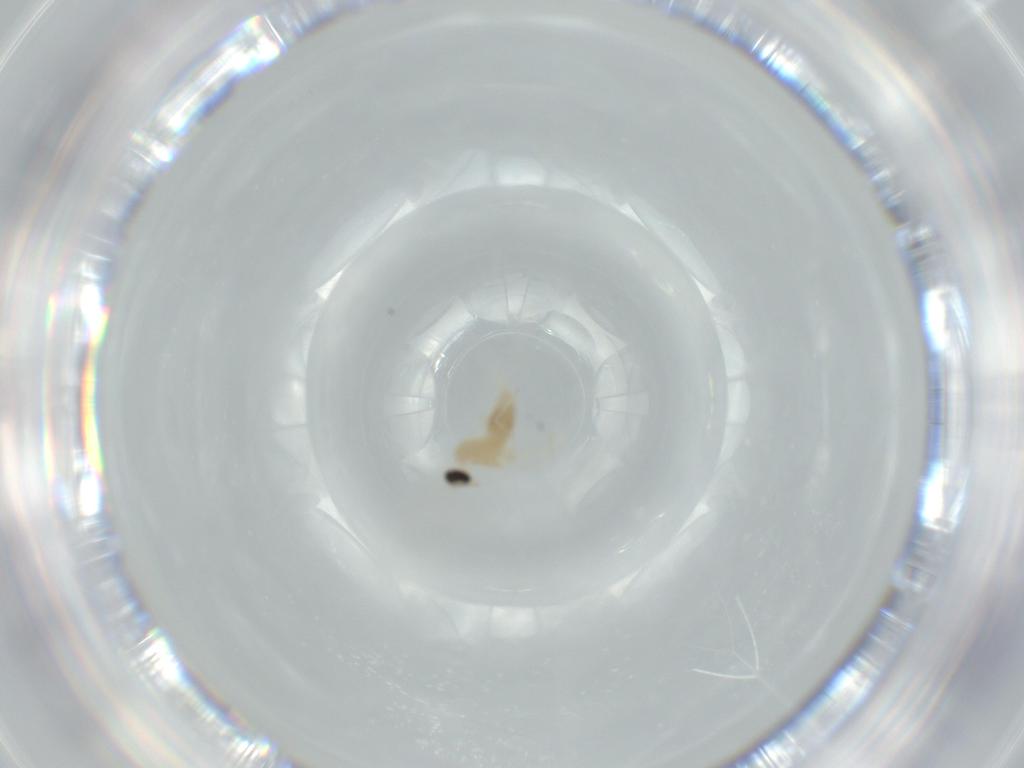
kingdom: Animalia
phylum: Arthropoda
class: Insecta
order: Diptera
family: Cecidomyiidae
